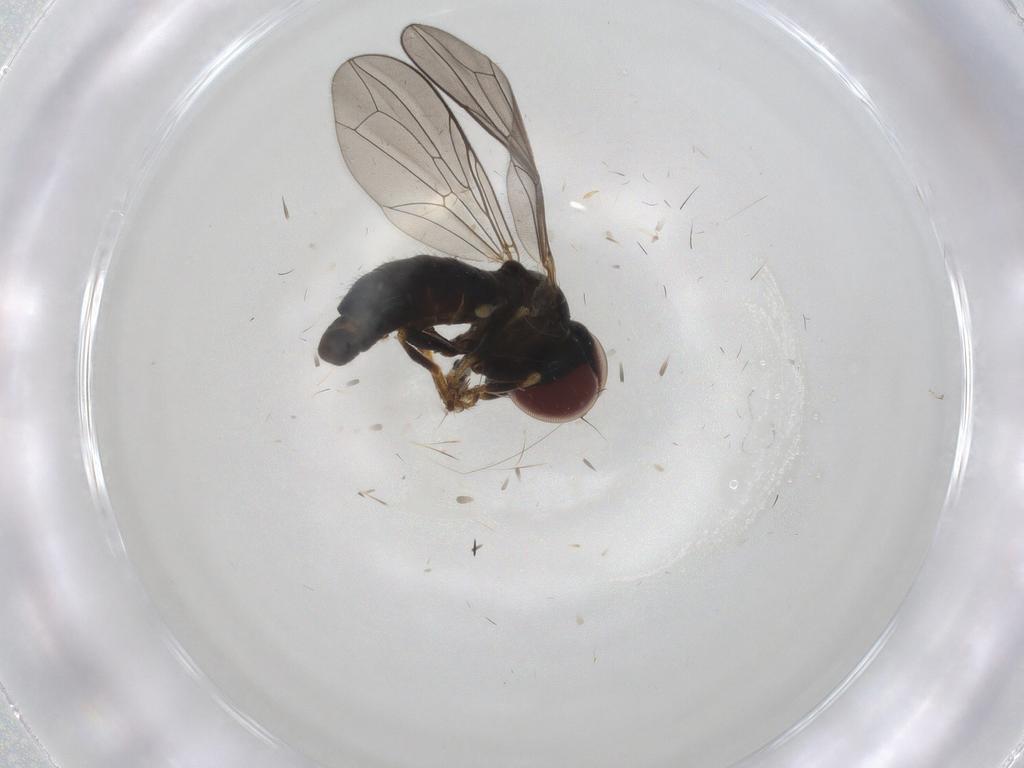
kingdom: Animalia
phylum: Arthropoda
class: Insecta
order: Diptera
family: Pipunculidae
